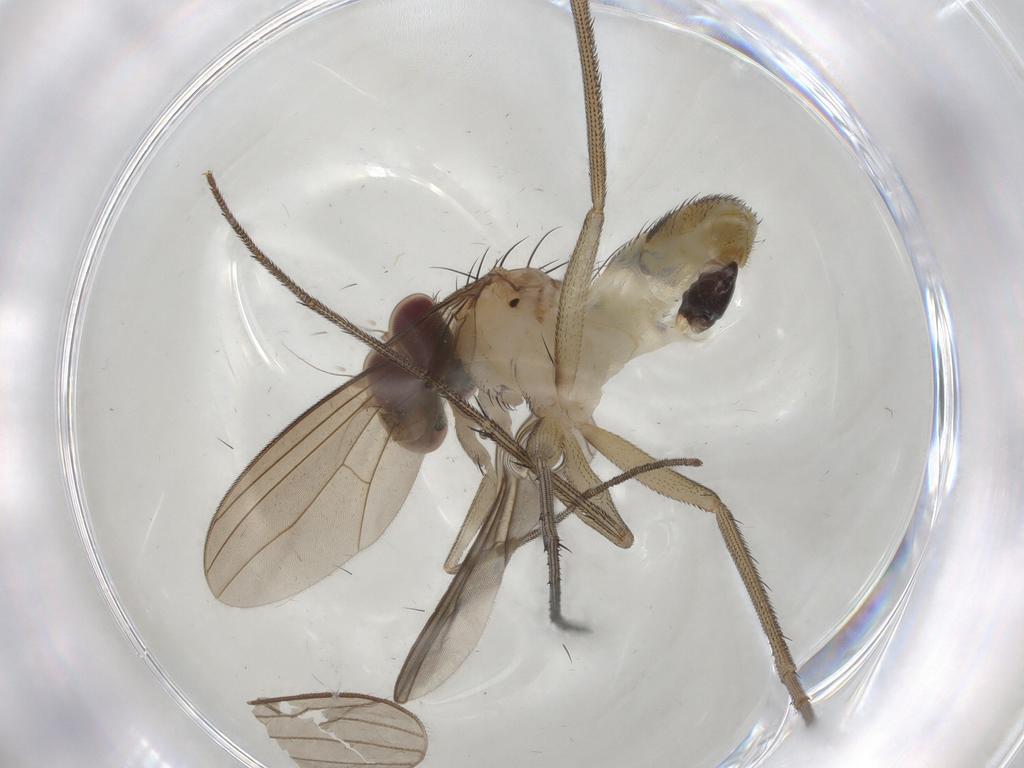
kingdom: Animalia
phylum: Arthropoda
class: Insecta
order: Diptera
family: Dolichopodidae
